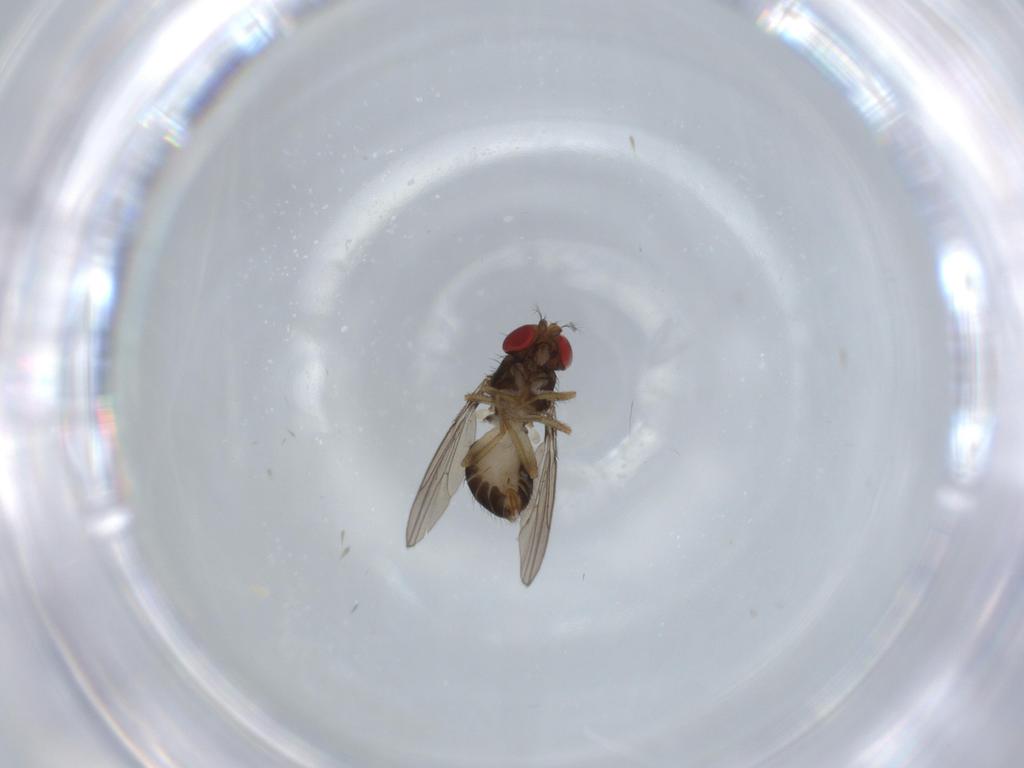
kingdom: Animalia
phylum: Arthropoda
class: Insecta
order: Diptera
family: Drosophilidae
